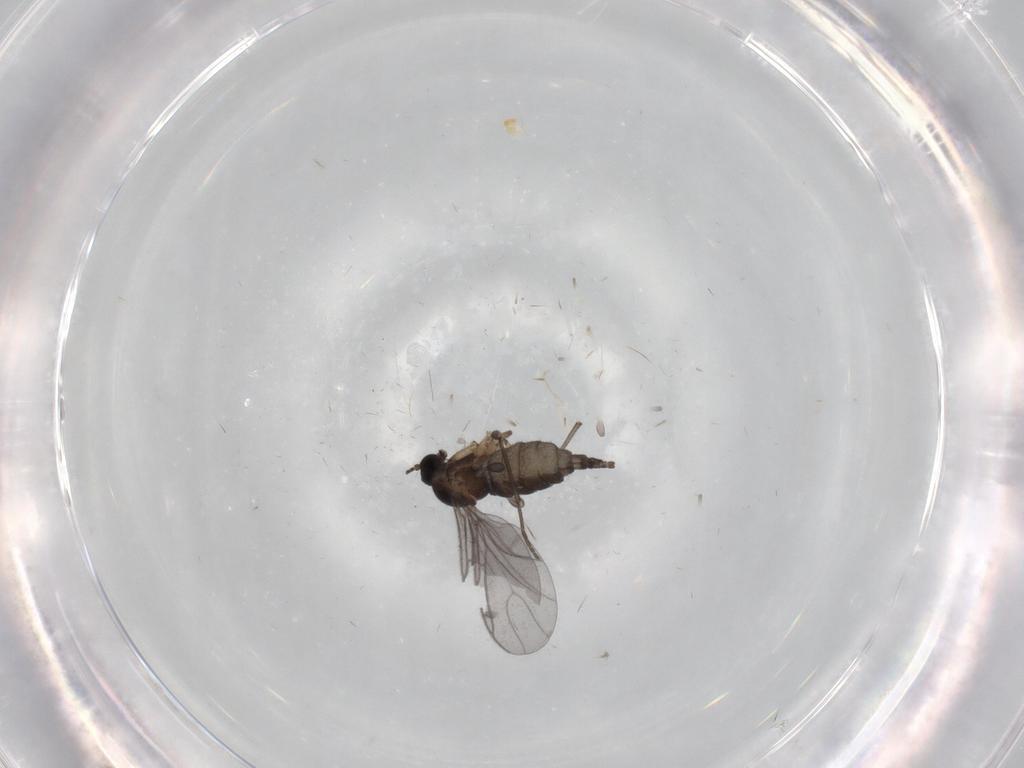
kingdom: Animalia
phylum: Arthropoda
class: Insecta
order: Diptera
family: Sciaridae
